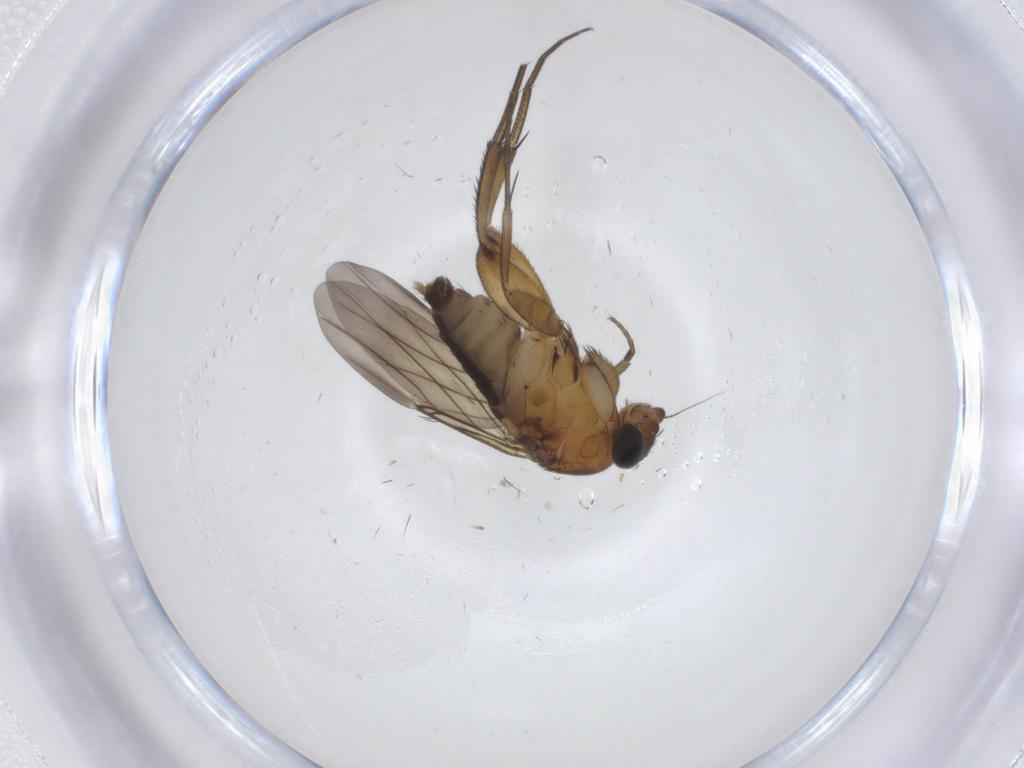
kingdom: Animalia
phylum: Arthropoda
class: Insecta
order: Diptera
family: Phoridae
